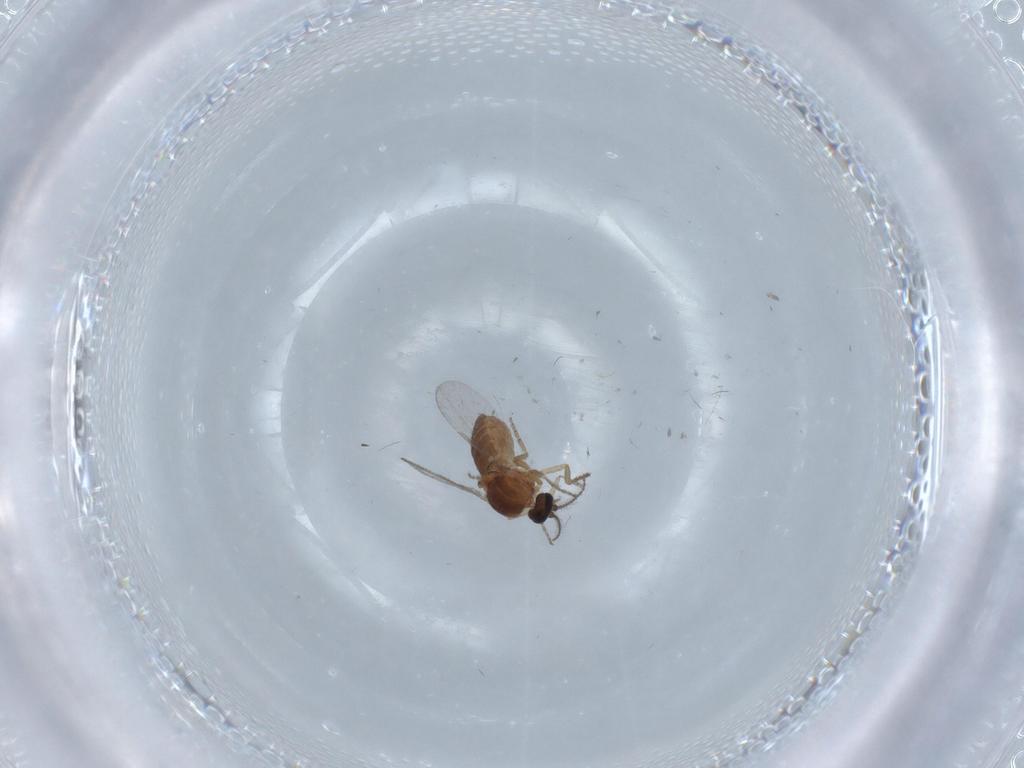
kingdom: Animalia
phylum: Arthropoda
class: Insecta
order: Diptera
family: Ceratopogonidae
